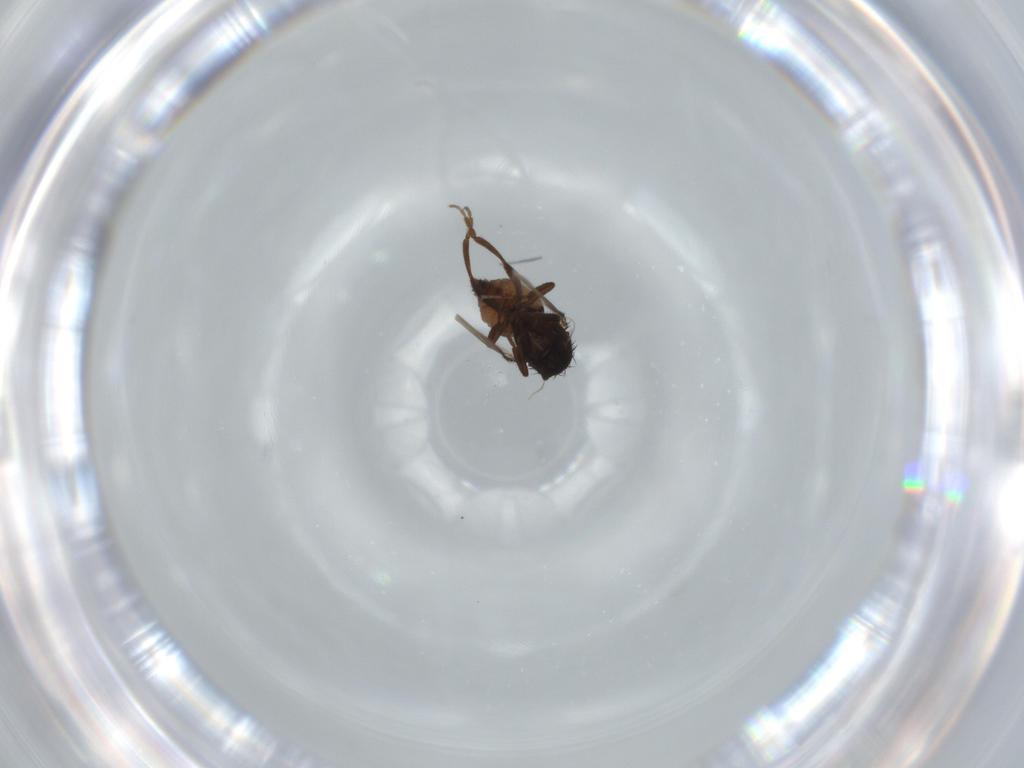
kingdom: Animalia
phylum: Arthropoda
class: Insecta
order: Diptera
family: Sphaeroceridae
